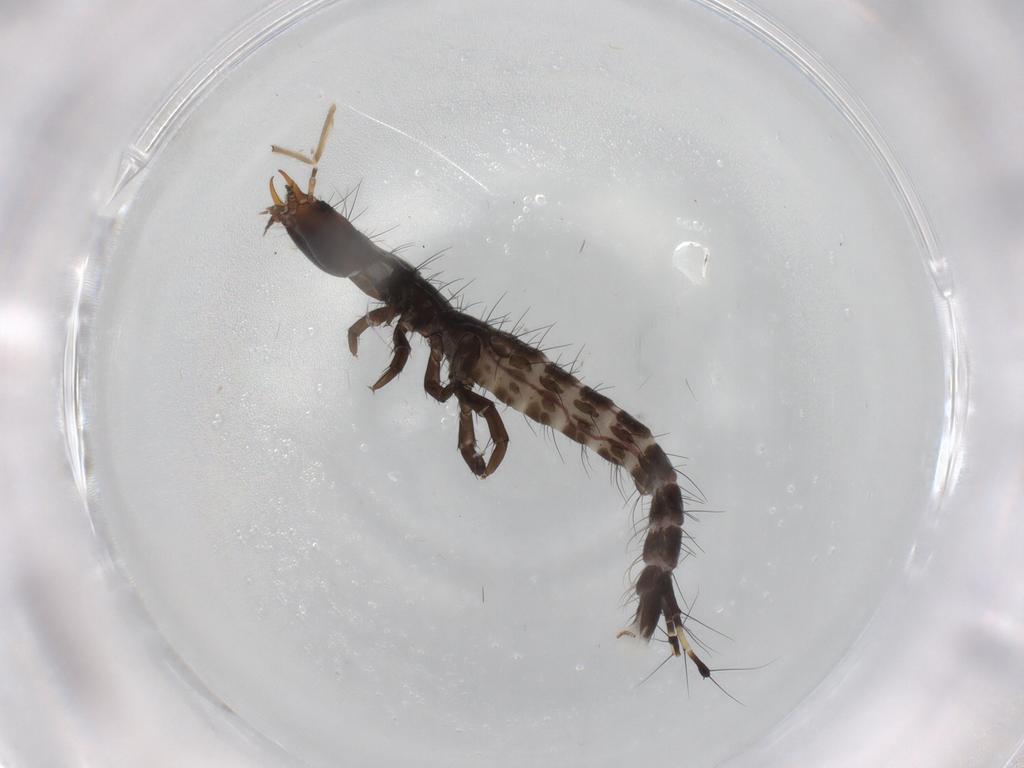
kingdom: Animalia
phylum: Arthropoda
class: Insecta
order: Coleoptera
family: Carabidae
